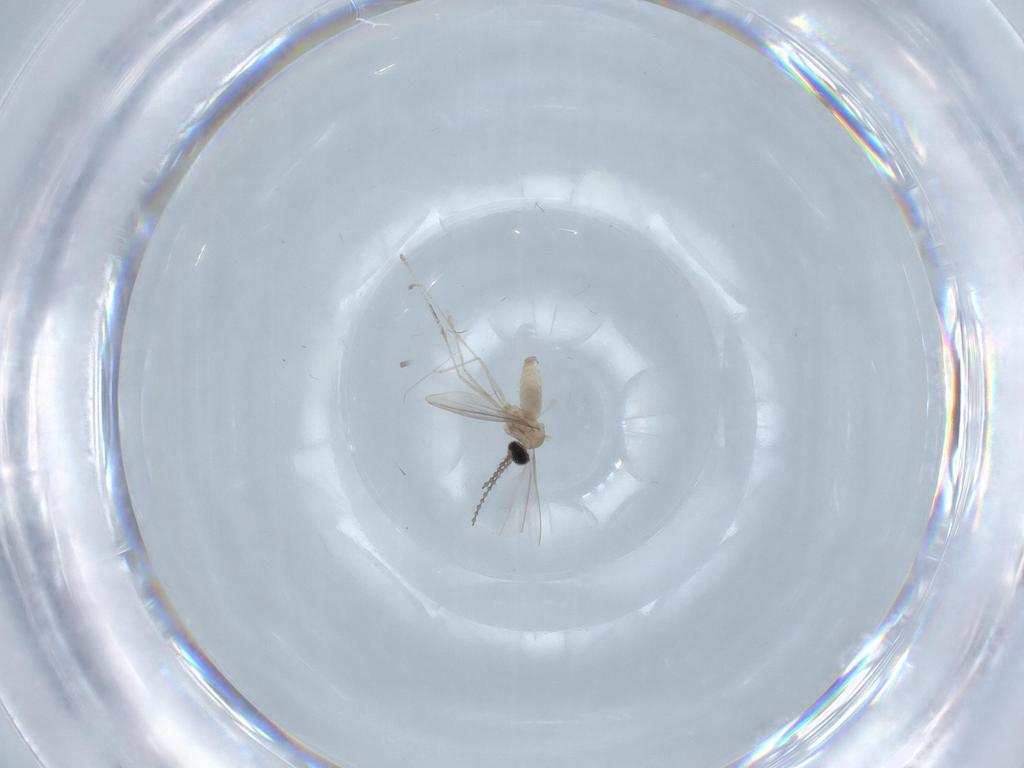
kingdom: Animalia
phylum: Arthropoda
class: Insecta
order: Diptera
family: Cecidomyiidae
